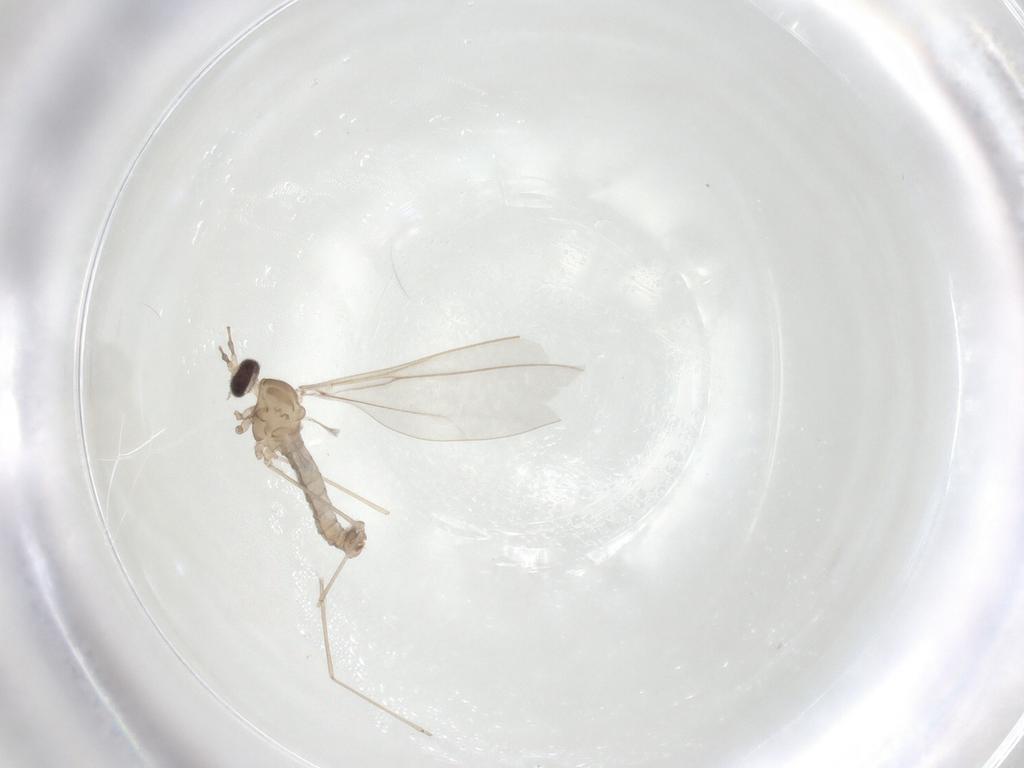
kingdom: Animalia
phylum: Arthropoda
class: Insecta
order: Diptera
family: Cecidomyiidae
